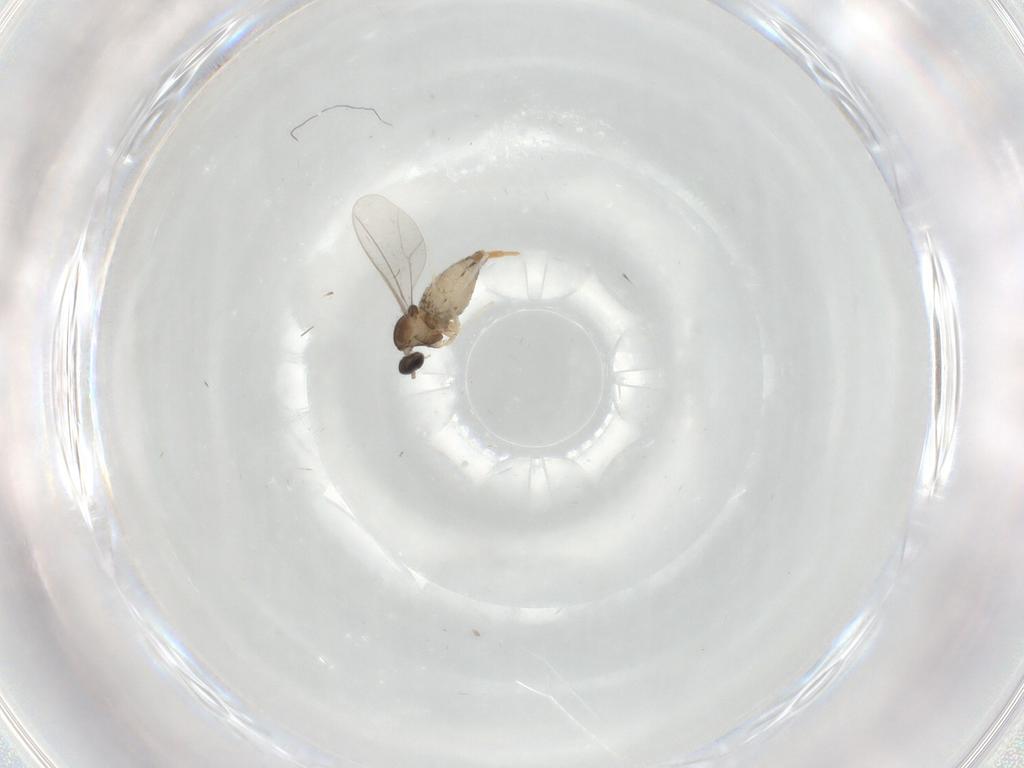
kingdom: Animalia
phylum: Arthropoda
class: Insecta
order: Diptera
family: Cecidomyiidae
